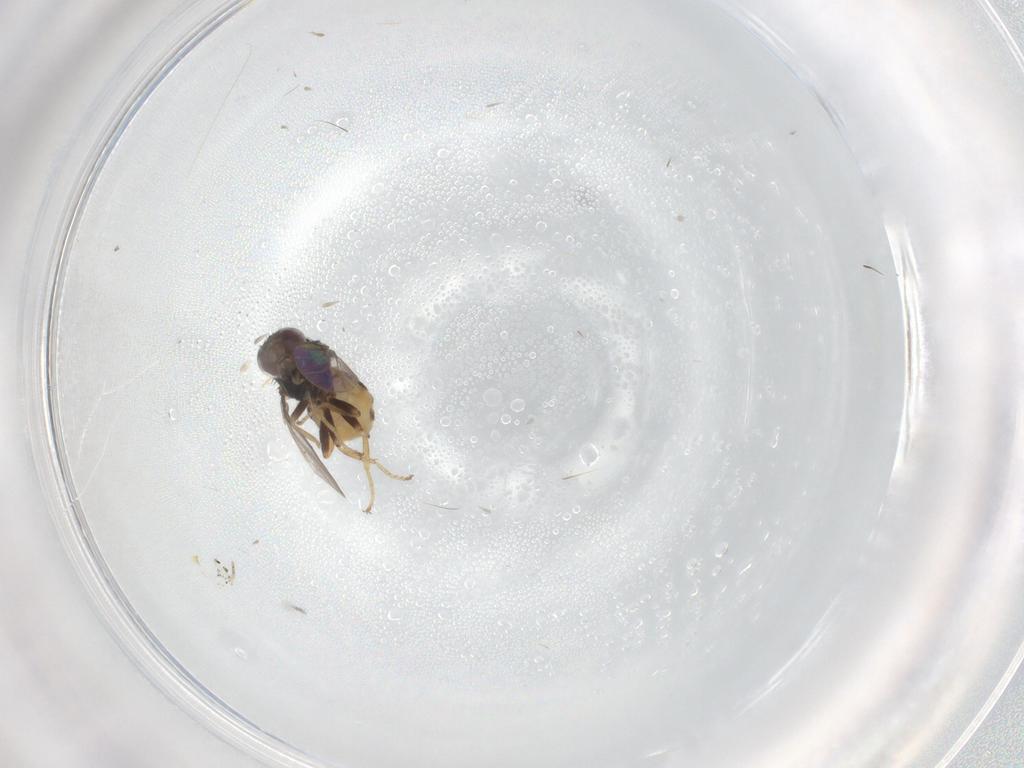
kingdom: Animalia
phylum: Arthropoda
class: Insecta
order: Diptera
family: Chloropidae
